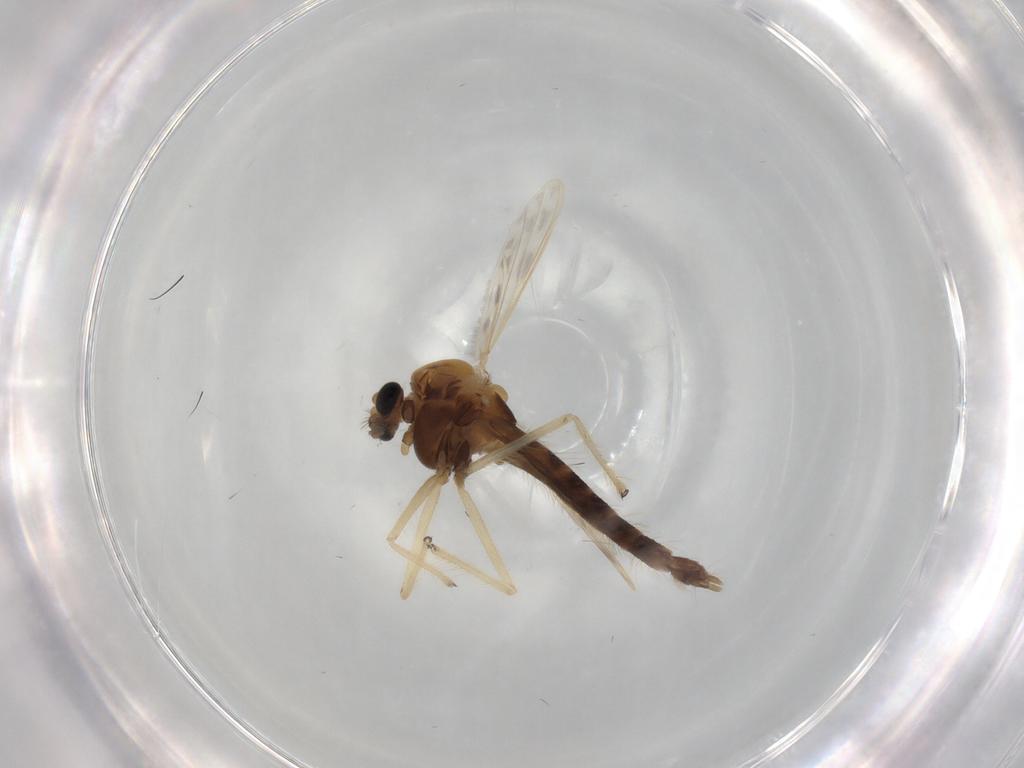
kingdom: Animalia
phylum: Arthropoda
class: Insecta
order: Diptera
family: Chironomidae
